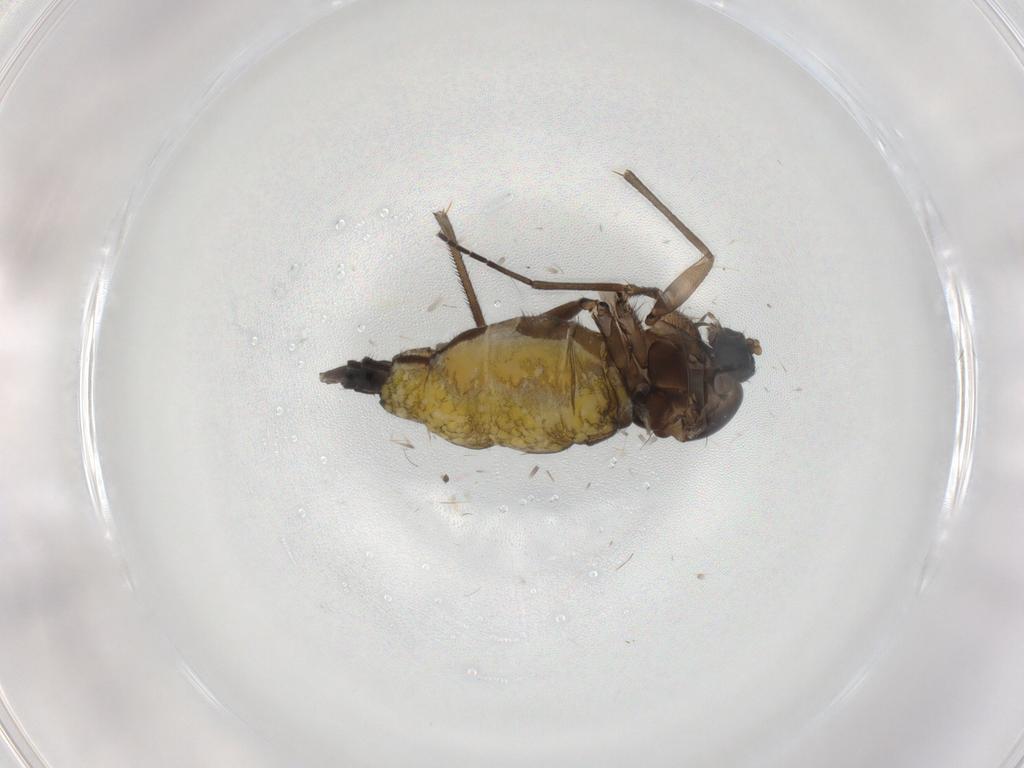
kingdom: Animalia
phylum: Arthropoda
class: Insecta
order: Diptera
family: Sciaridae
